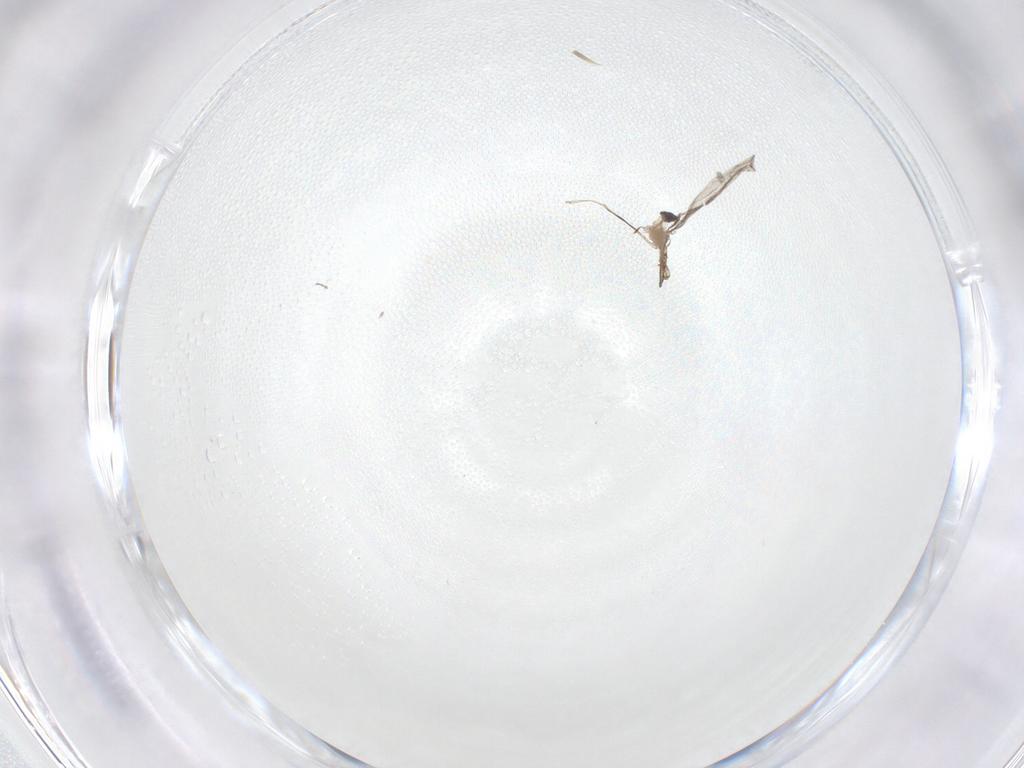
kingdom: Animalia
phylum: Arthropoda
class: Insecta
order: Diptera
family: Cecidomyiidae
